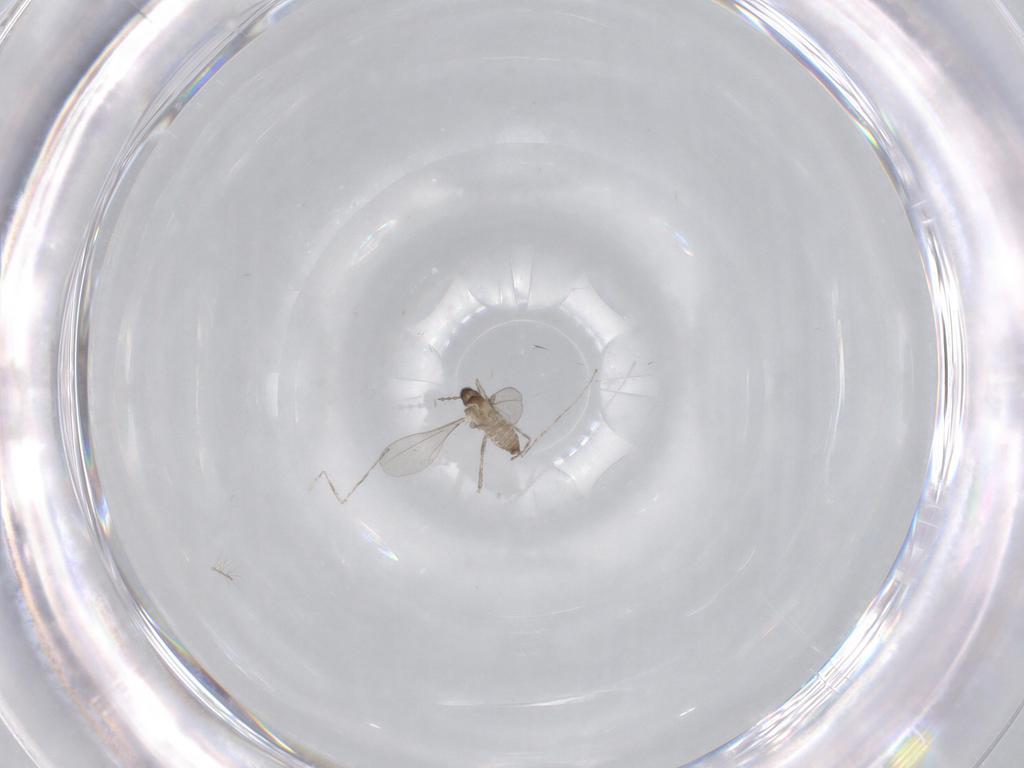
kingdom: Animalia
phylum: Arthropoda
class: Insecta
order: Diptera
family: Cecidomyiidae
